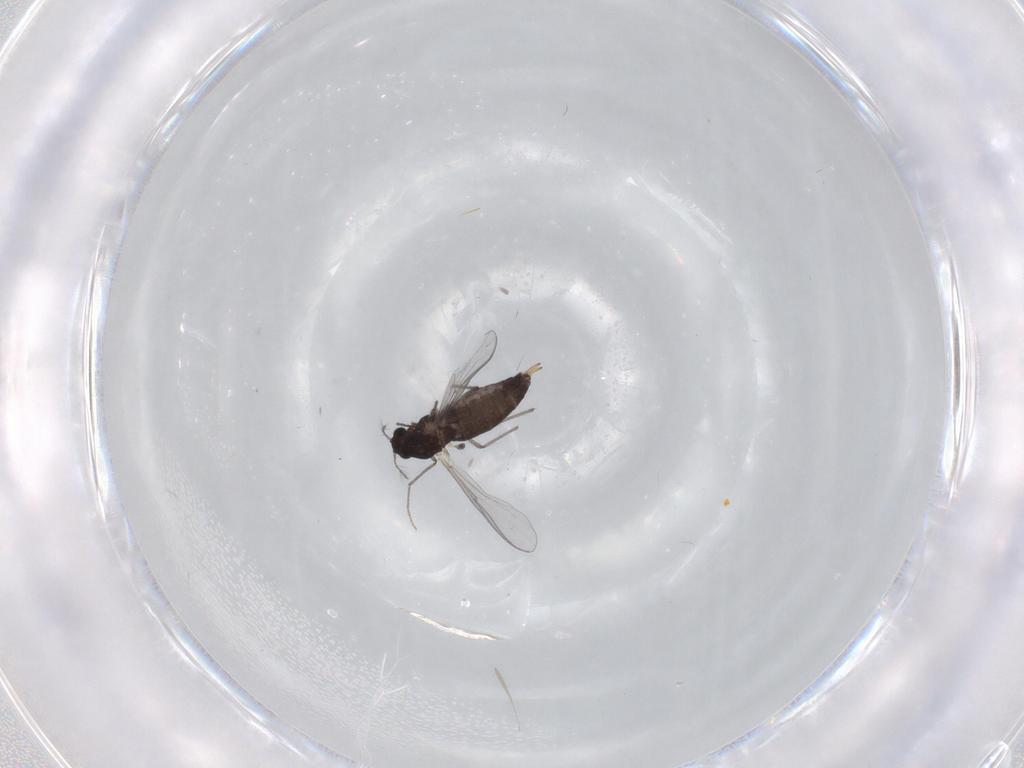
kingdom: Animalia
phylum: Arthropoda
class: Insecta
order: Diptera
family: Chironomidae
